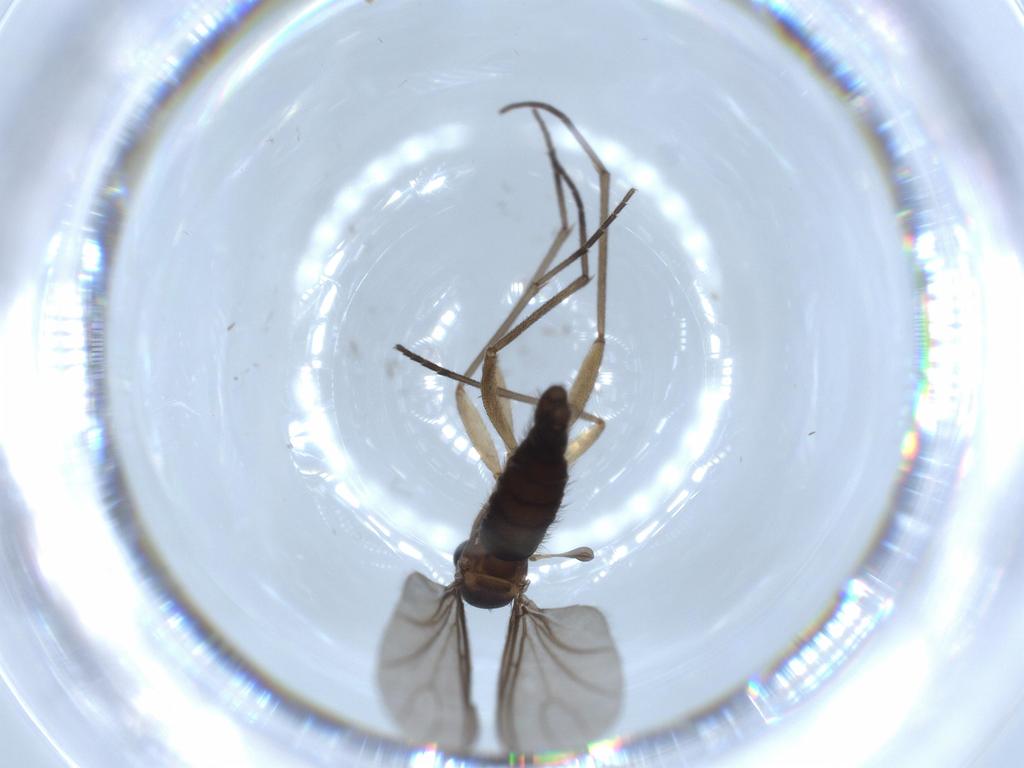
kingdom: Animalia
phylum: Arthropoda
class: Insecta
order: Diptera
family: Sciaridae
